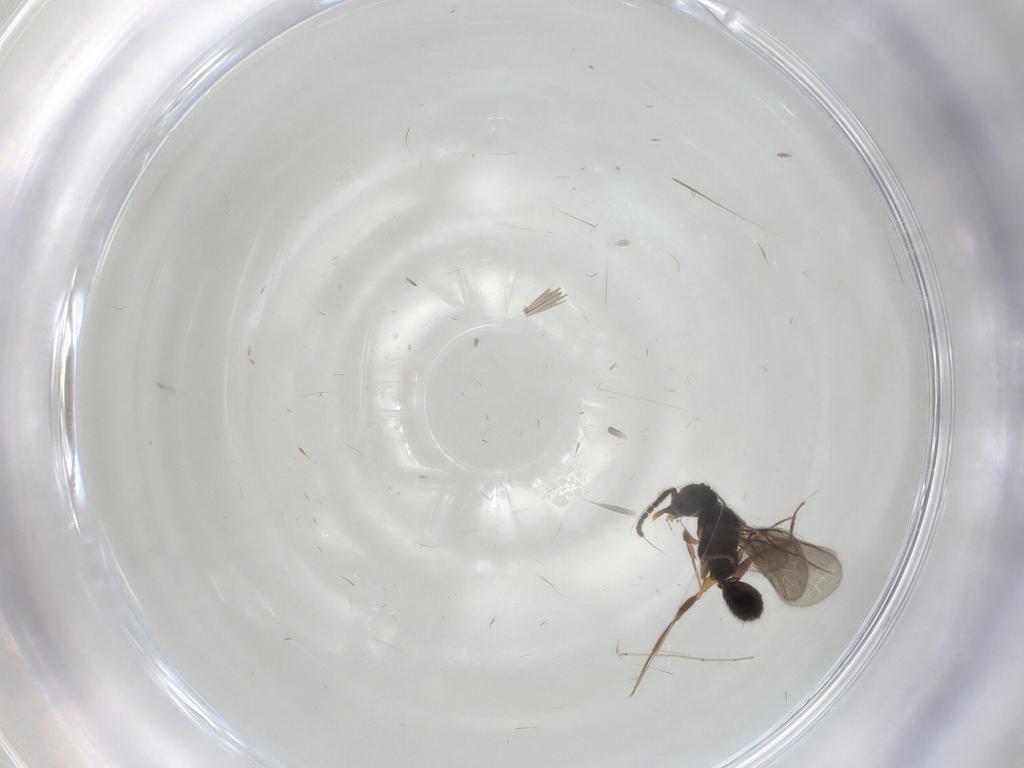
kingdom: Animalia
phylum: Arthropoda
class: Insecta
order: Hymenoptera
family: Bethylidae
